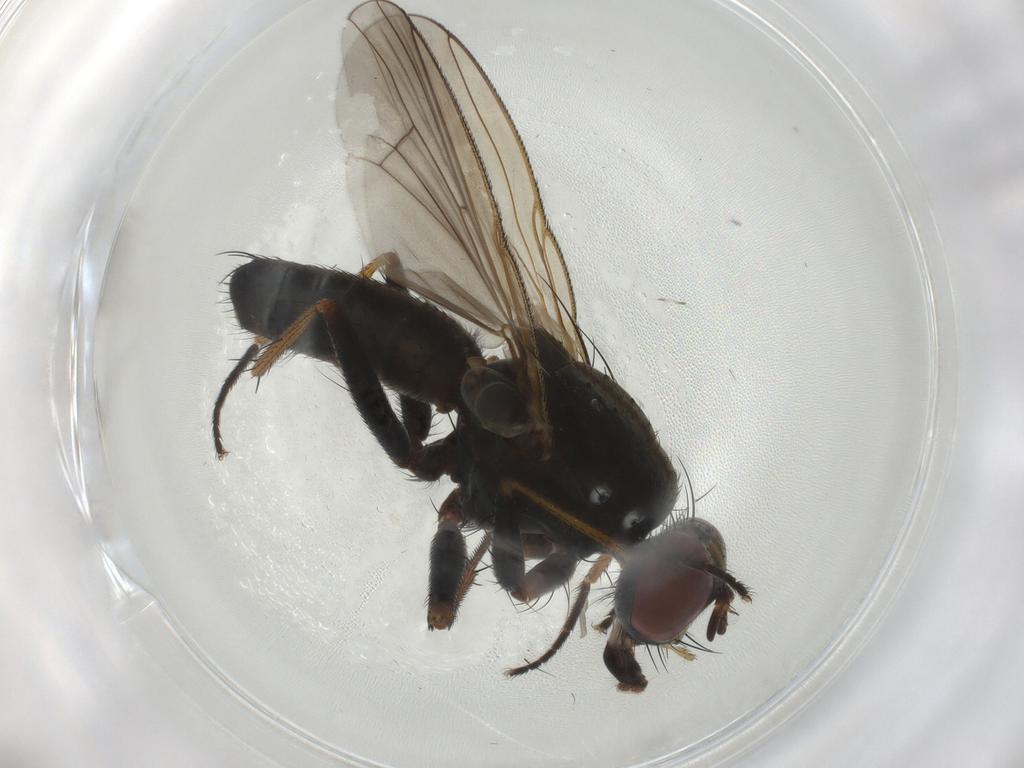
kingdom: Animalia
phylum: Arthropoda
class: Insecta
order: Diptera
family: Muscidae
